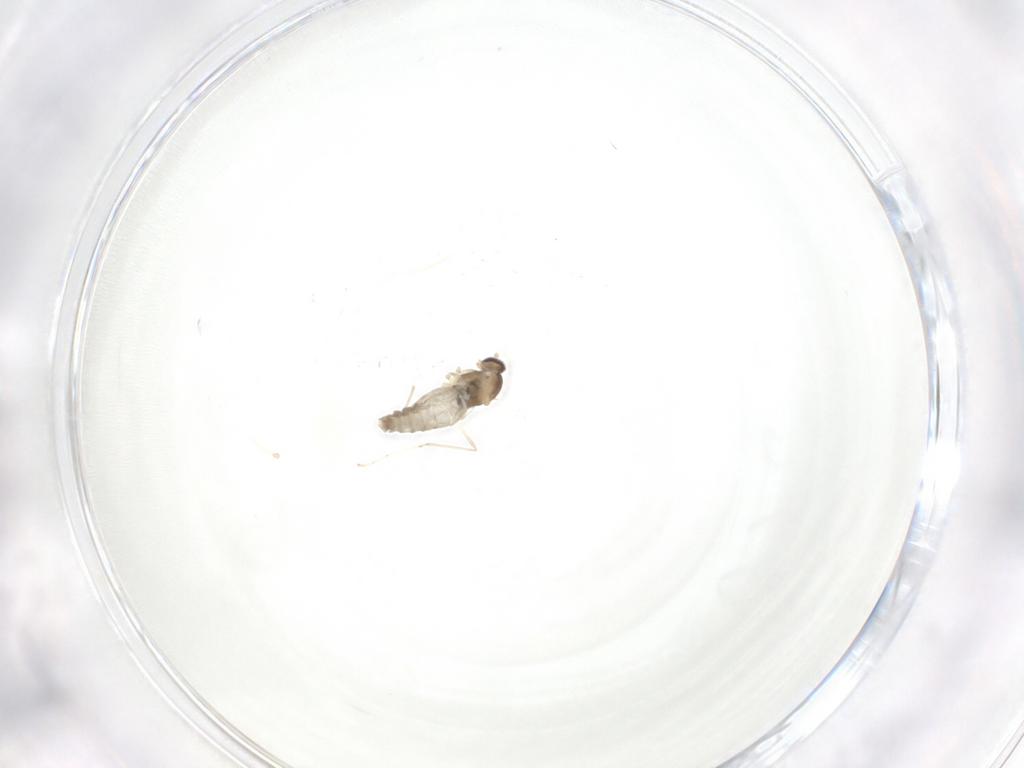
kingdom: Animalia
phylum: Arthropoda
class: Insecta
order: Diptera
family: Cecidomyiidae
